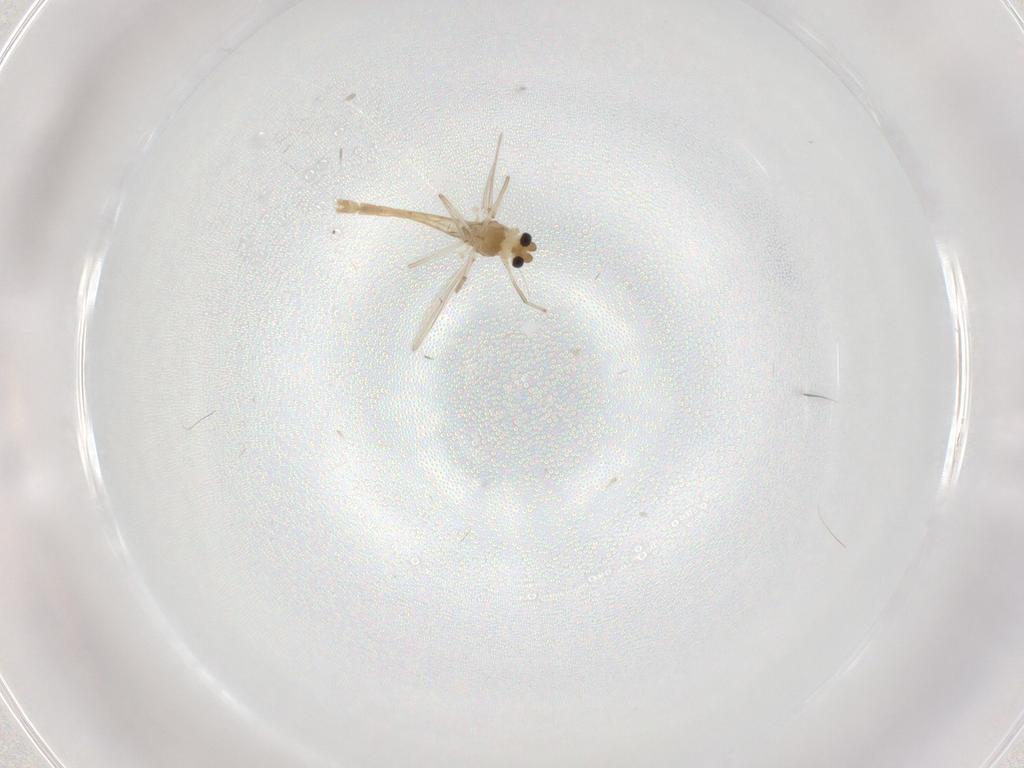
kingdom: Animalia
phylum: Arthropoda
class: Insecta
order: Diptera
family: Chironomidae
